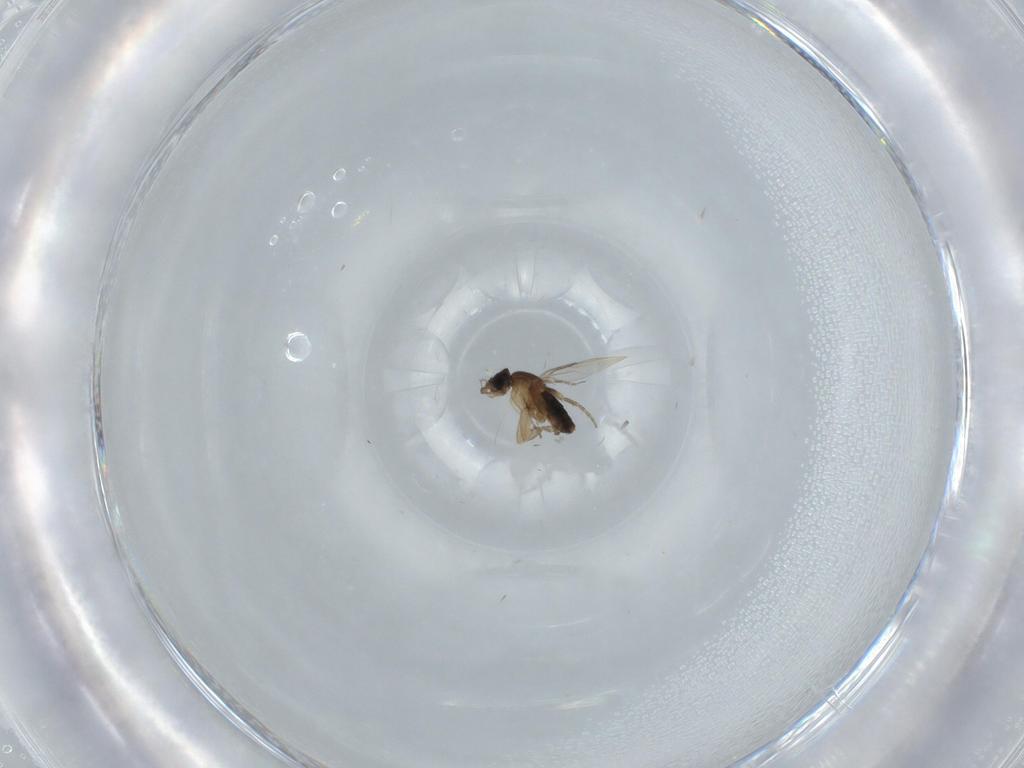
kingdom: Animalia
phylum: Arthropoda
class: Insecta
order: Diptera
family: Phoridae
